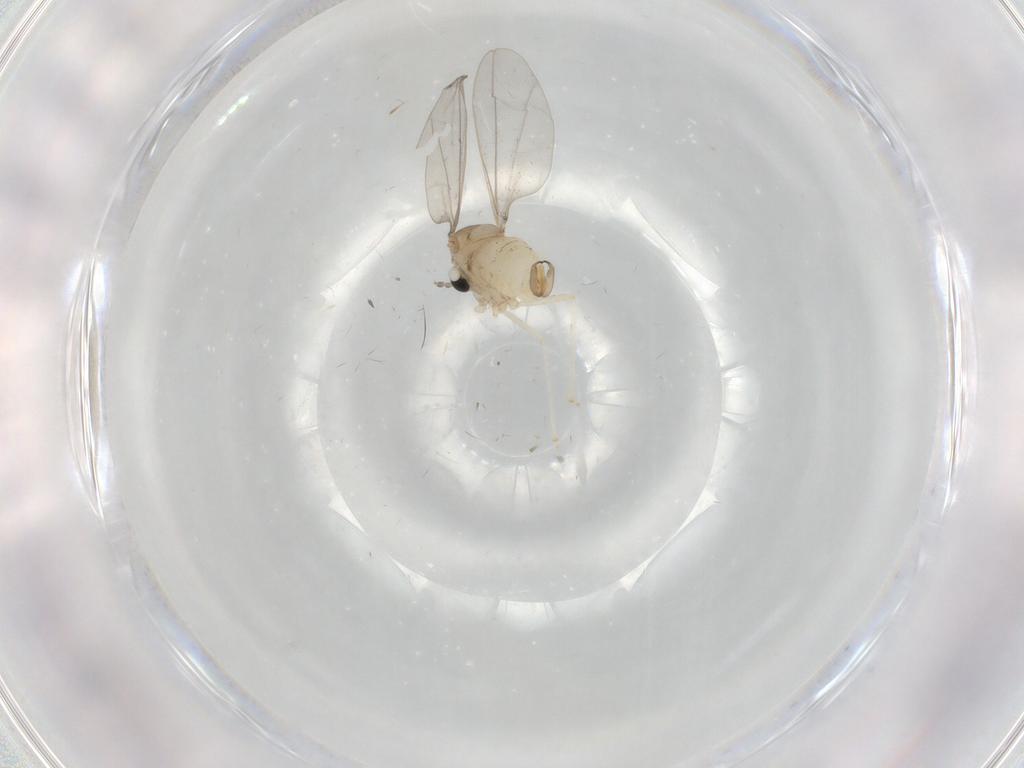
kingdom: Animalia
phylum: Arthropoda
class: Insecta
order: Diptera
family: Cecidomyiidae
